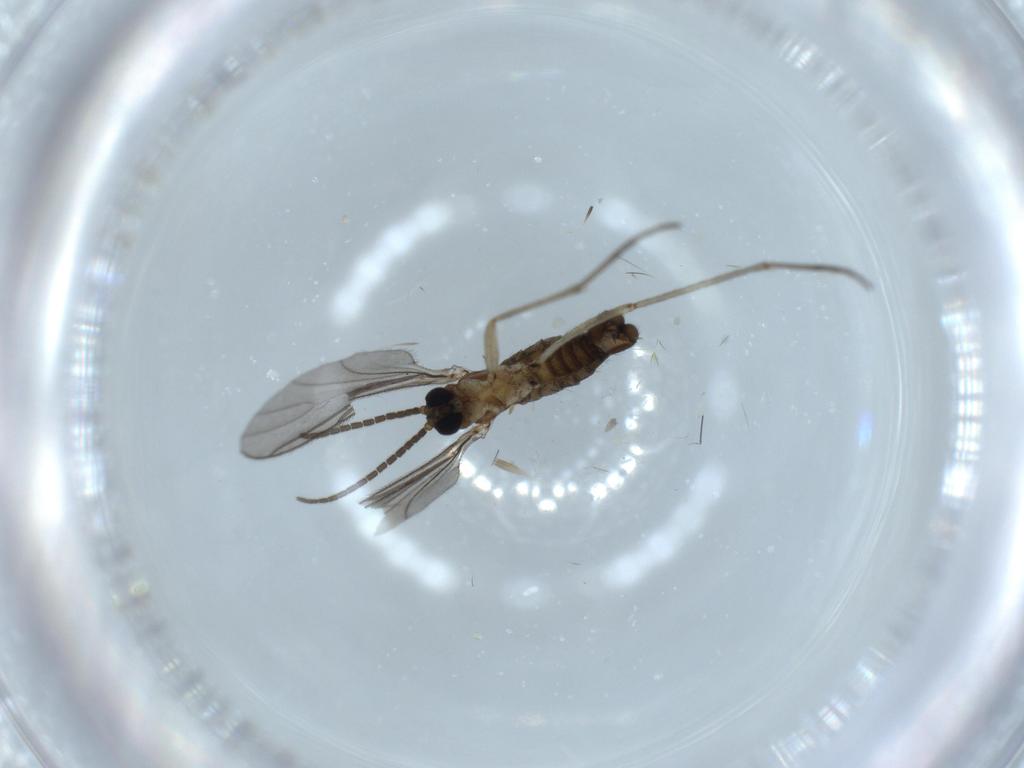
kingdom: Animalia
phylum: Arthropoda
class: Insecta
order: Diptera
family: Sciaridae
